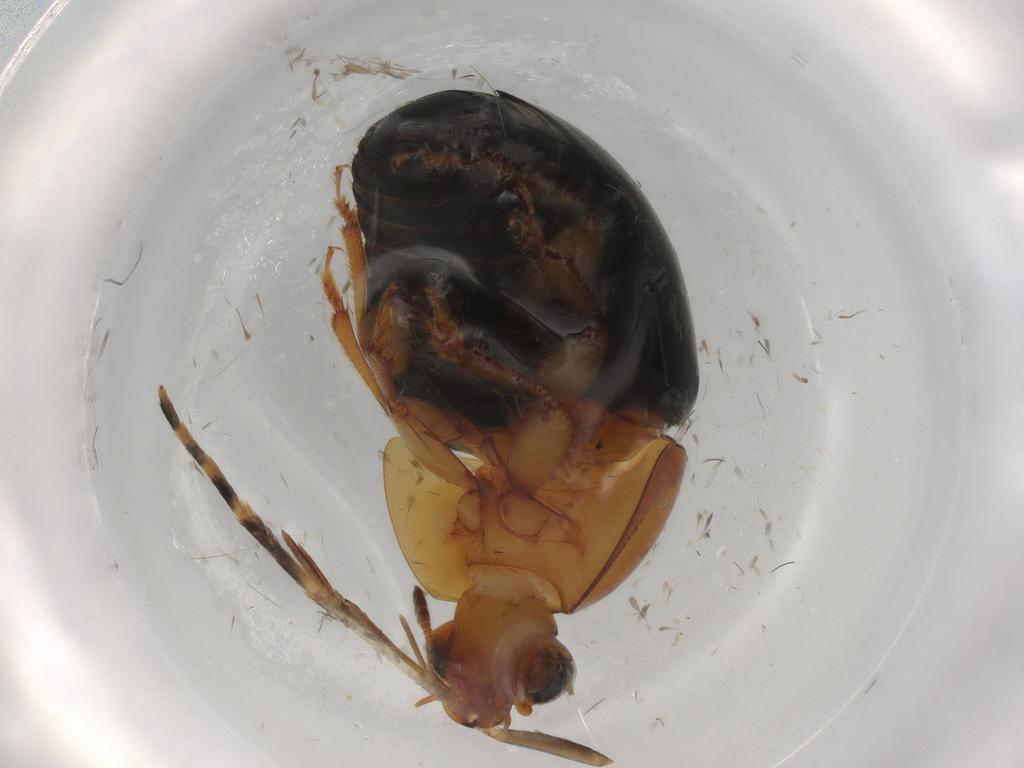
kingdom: Animalia
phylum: Arthropoda
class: Insecta
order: Coleoptera
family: Nitidulidae
